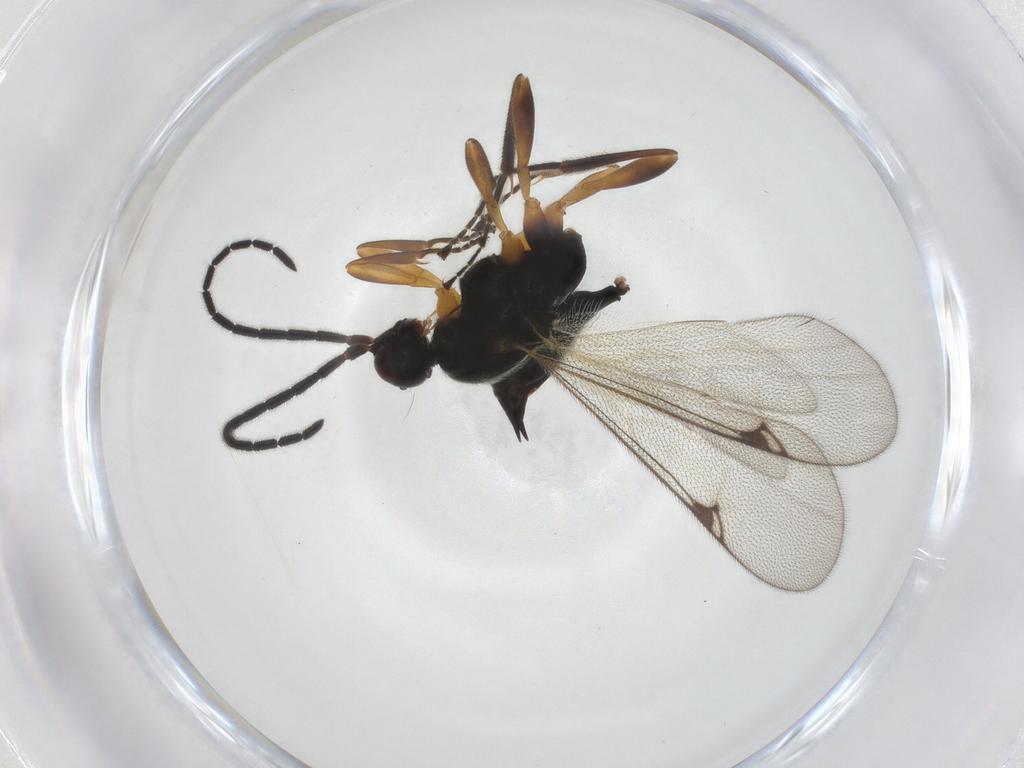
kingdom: Animalia
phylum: Arthropoda
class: Insecta
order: Hymenoptera
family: Proctotrupidae
